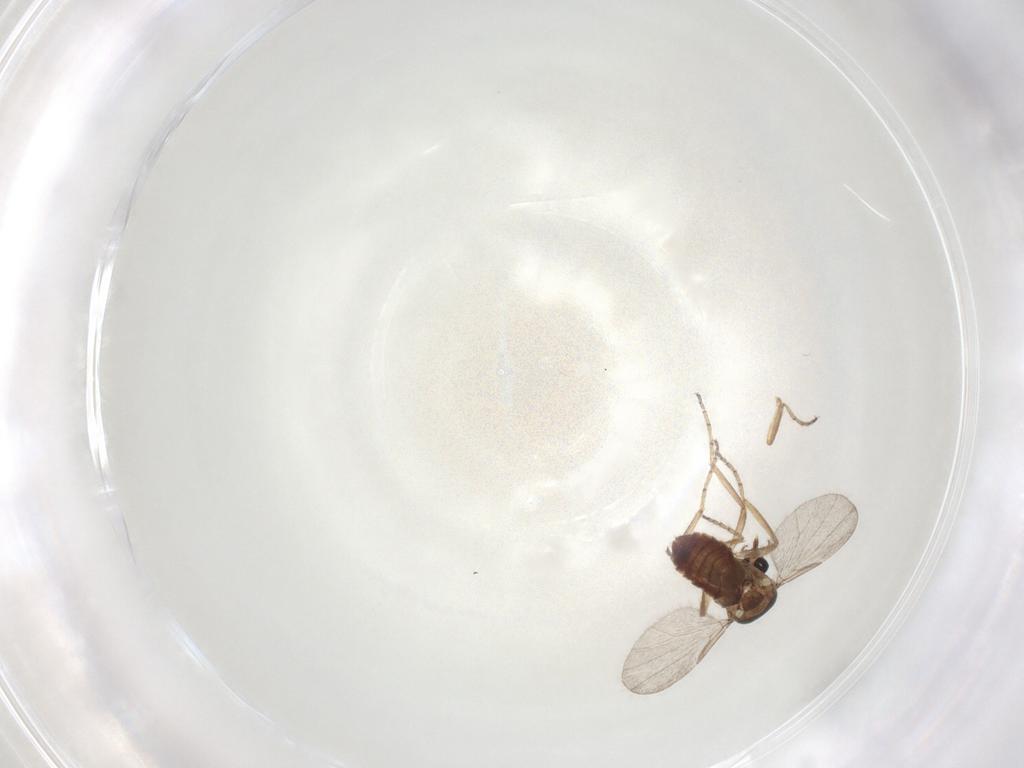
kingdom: Animalia
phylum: Arthropoda
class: Insecta
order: Diptera
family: Ceratopogonidae
